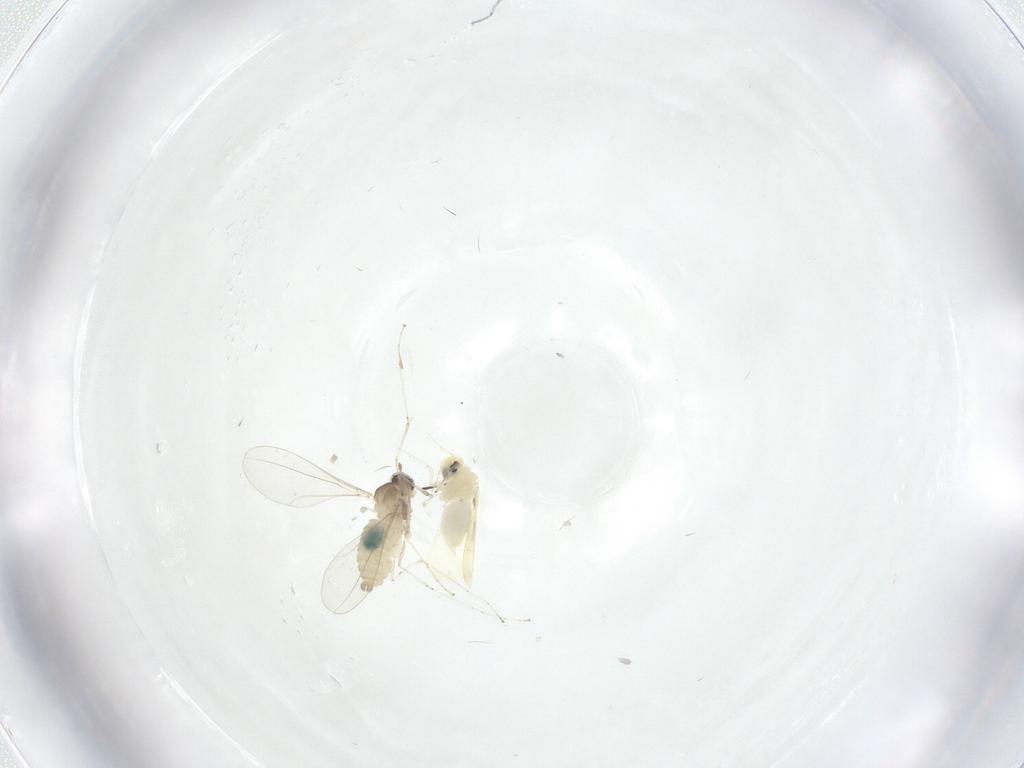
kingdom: Animalia
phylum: Arthropoda
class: Insecta
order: Diptera
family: Cecidomyiidae
